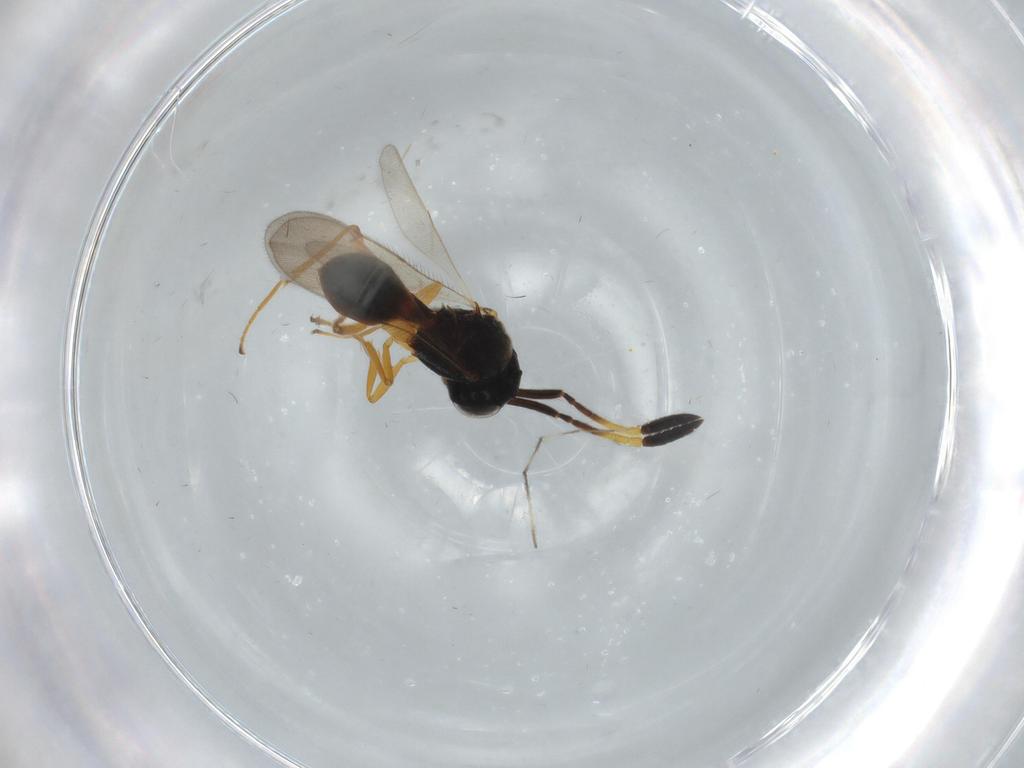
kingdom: Animalia
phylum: Arthropoda
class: Insecta
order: Hymenoptera
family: Scelionidae
